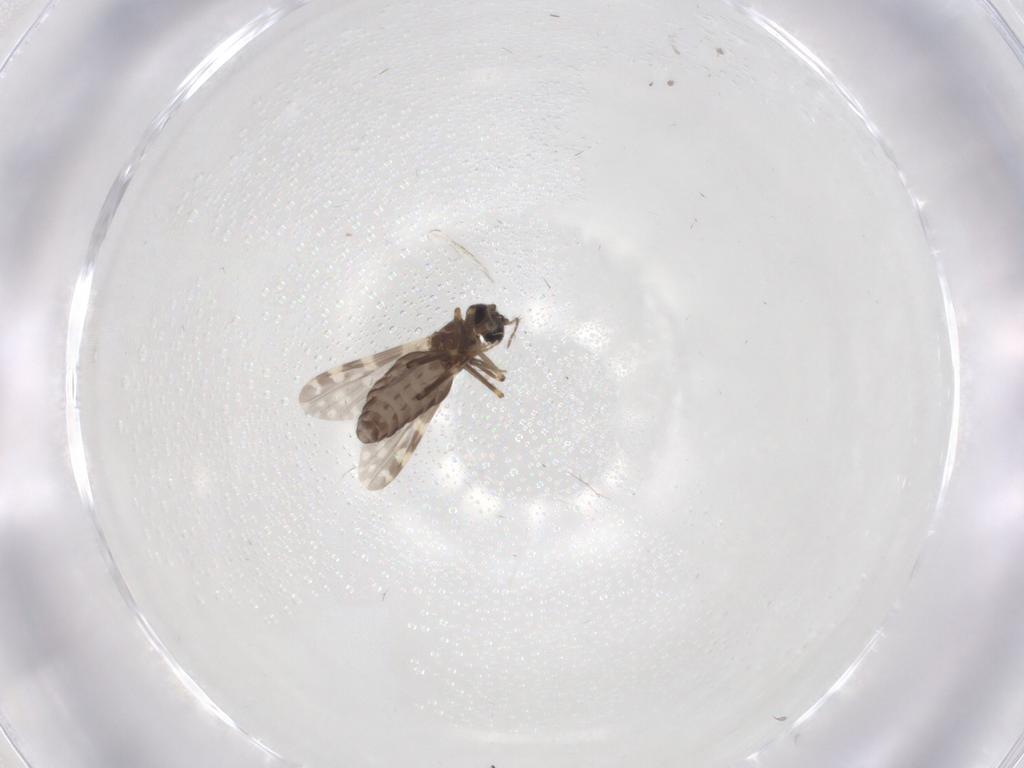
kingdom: Animalia
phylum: Arthropoda
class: Insecta
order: Diptera
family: Ceratopogonidae
